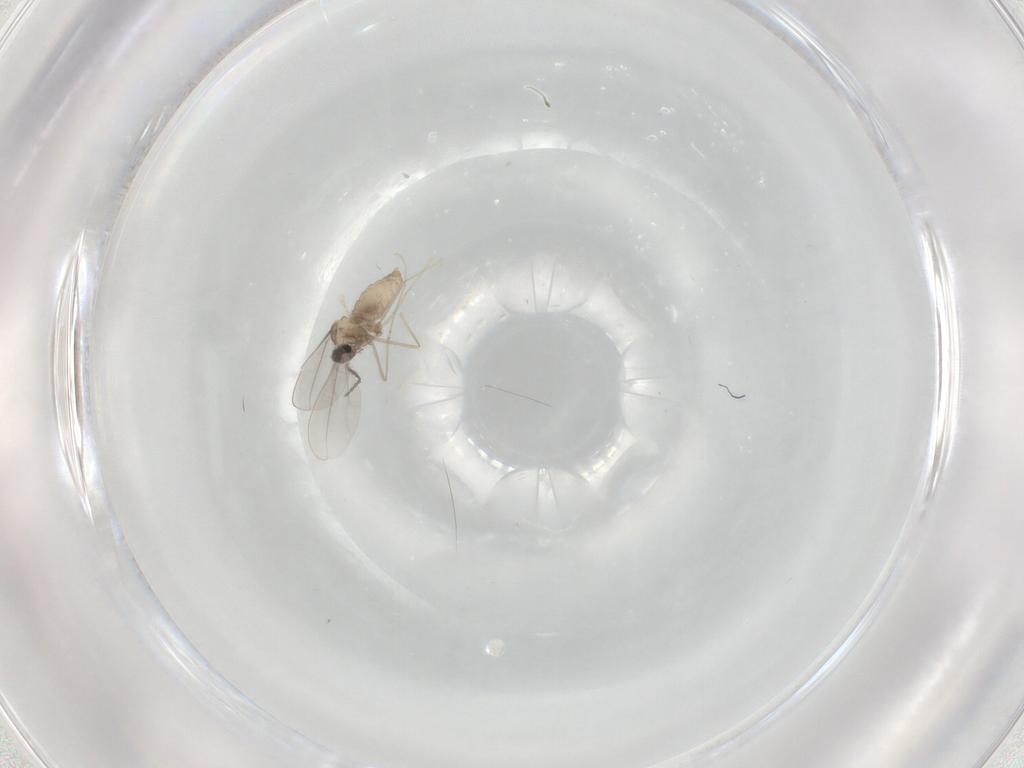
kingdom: Animalia
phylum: Arthropoda
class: Insecta
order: Diptera
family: Cecidomyiidae
